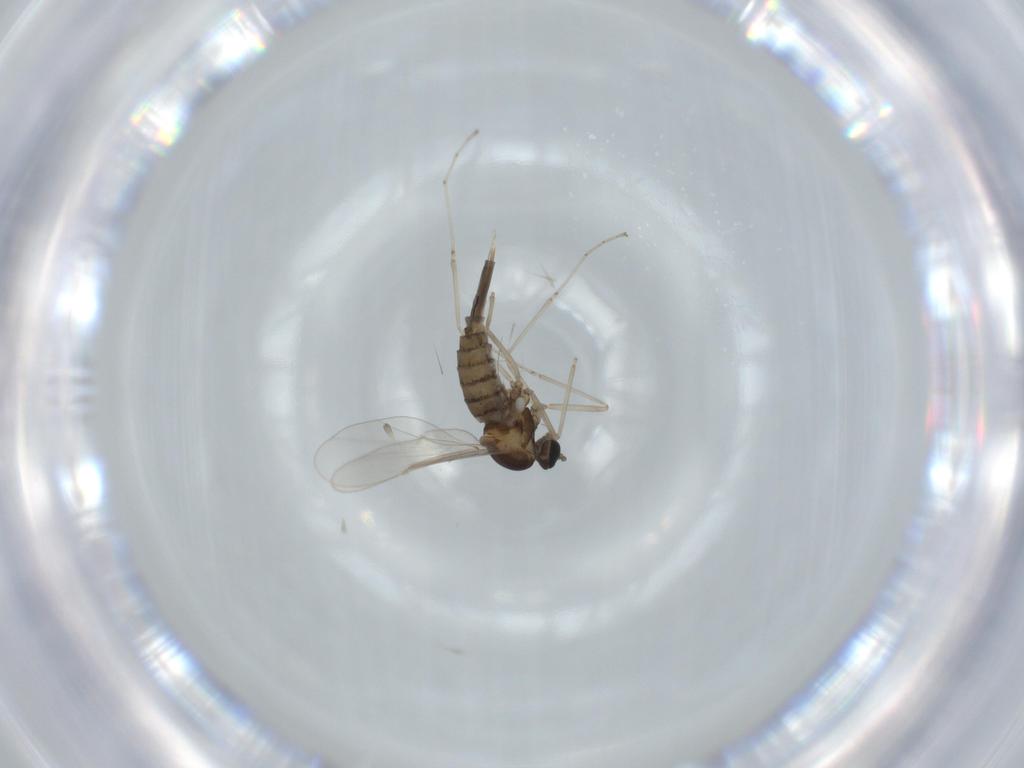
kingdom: Animalia
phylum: Arthropoda
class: Insecta
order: Diptera
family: Cecidomyiidae
